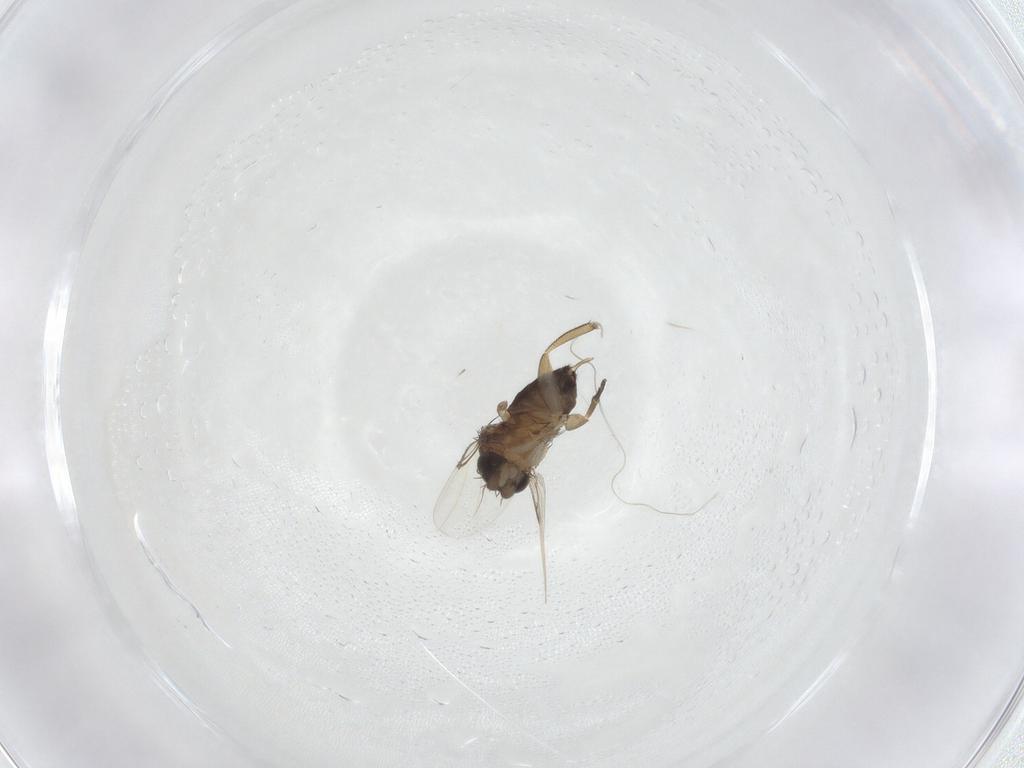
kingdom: Animalia
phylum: Arthropoda
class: Insecta
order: Diptera
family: Phoridae
